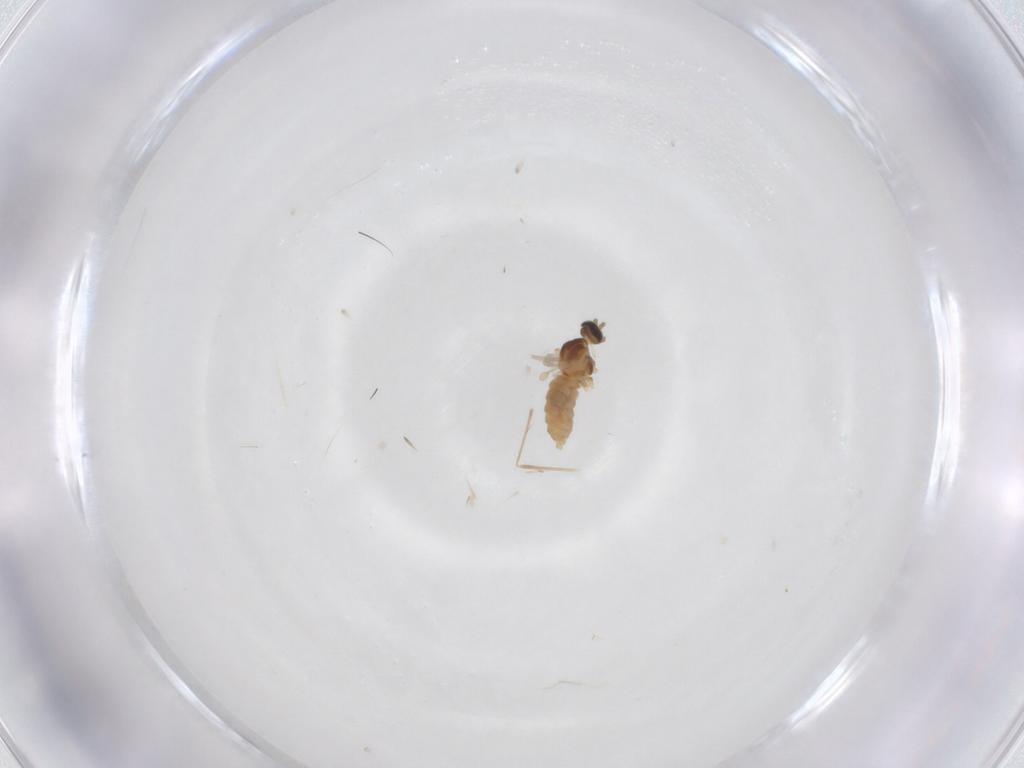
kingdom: Animalia
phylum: Arthropoda
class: Insecta
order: Diptera
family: Cecidomyiidae
